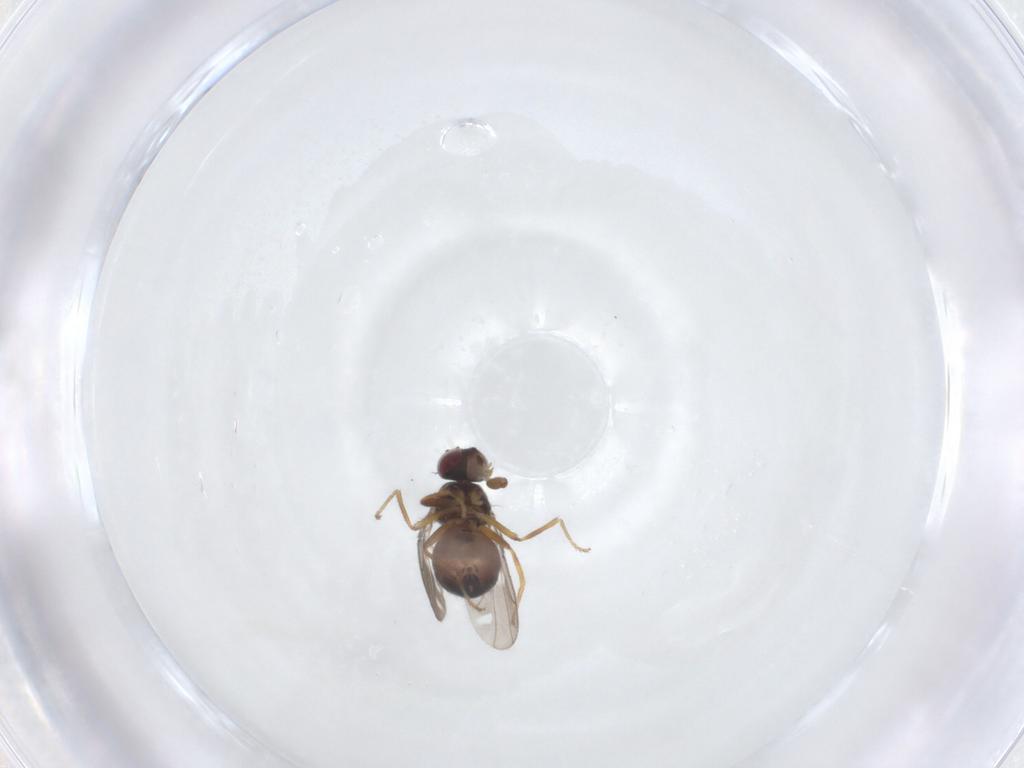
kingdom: Animalia
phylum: Arthropoda
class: Insecta
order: Diptera
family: Ephydridae
